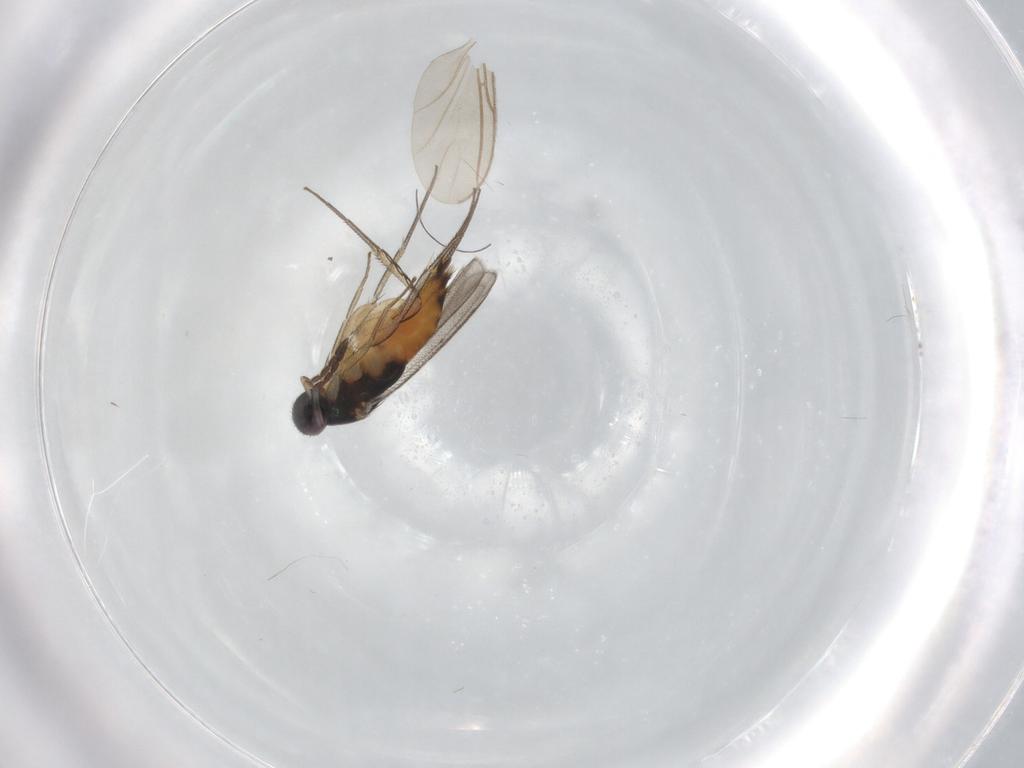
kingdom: Animalia
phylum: Arthropoda
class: Insecta
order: Hymenoptera
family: Eulophidae
